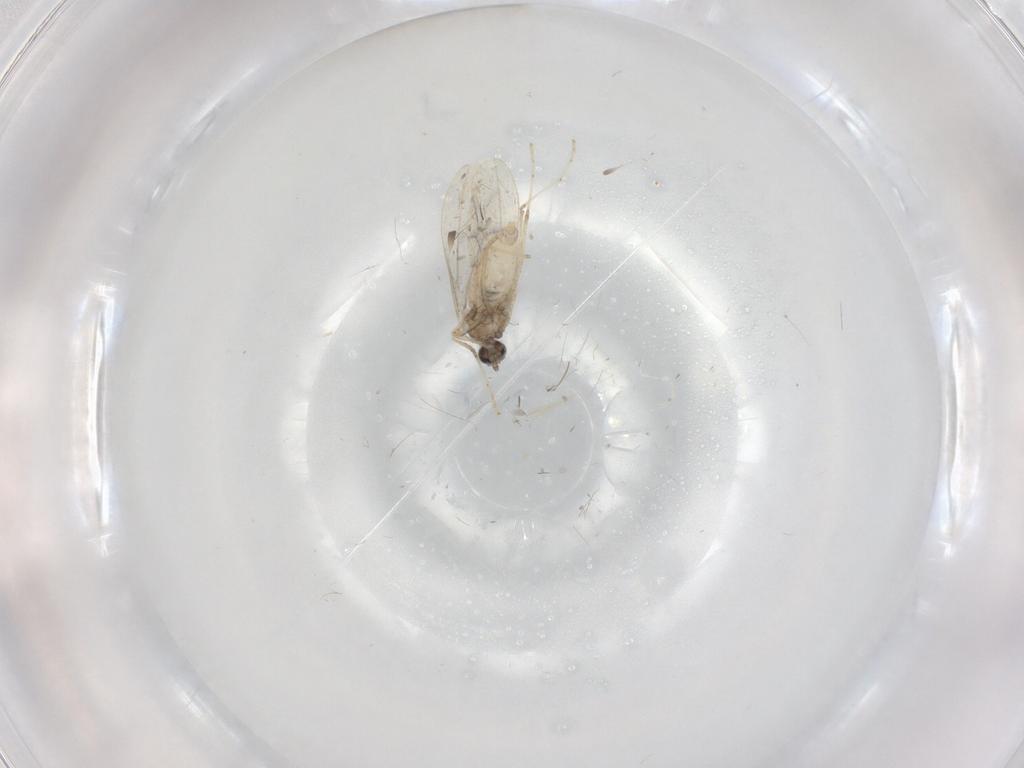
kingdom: Animalia
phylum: Arthropoda
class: Insecta
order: Diptera
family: Cecidomyiidae
